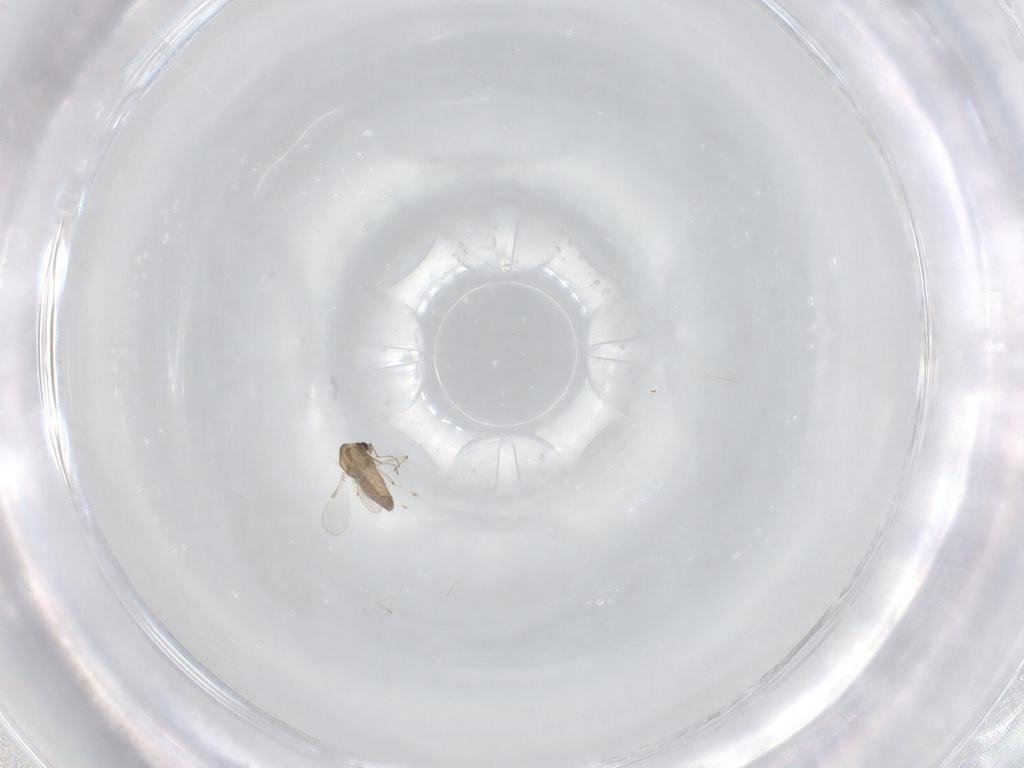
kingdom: Animalia
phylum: Arthropoda
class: Insecta
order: Diptera
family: Chironomidae
